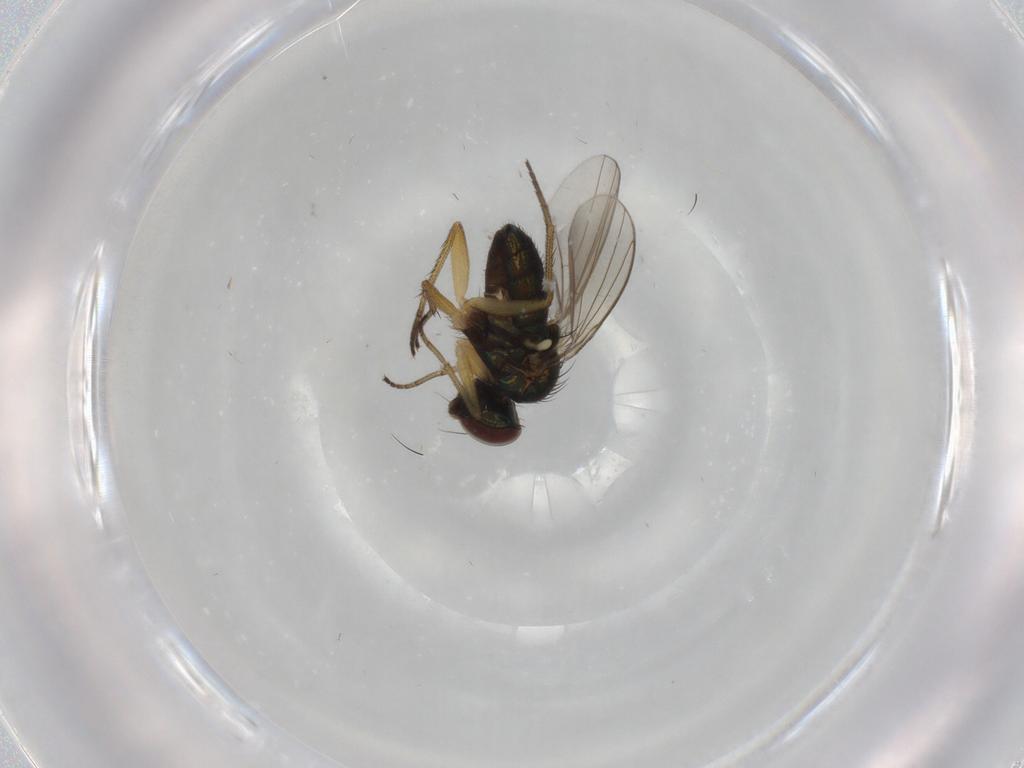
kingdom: Animalia
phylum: Arthropoda
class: Insecta
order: Diptera
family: Dolichopodidae
